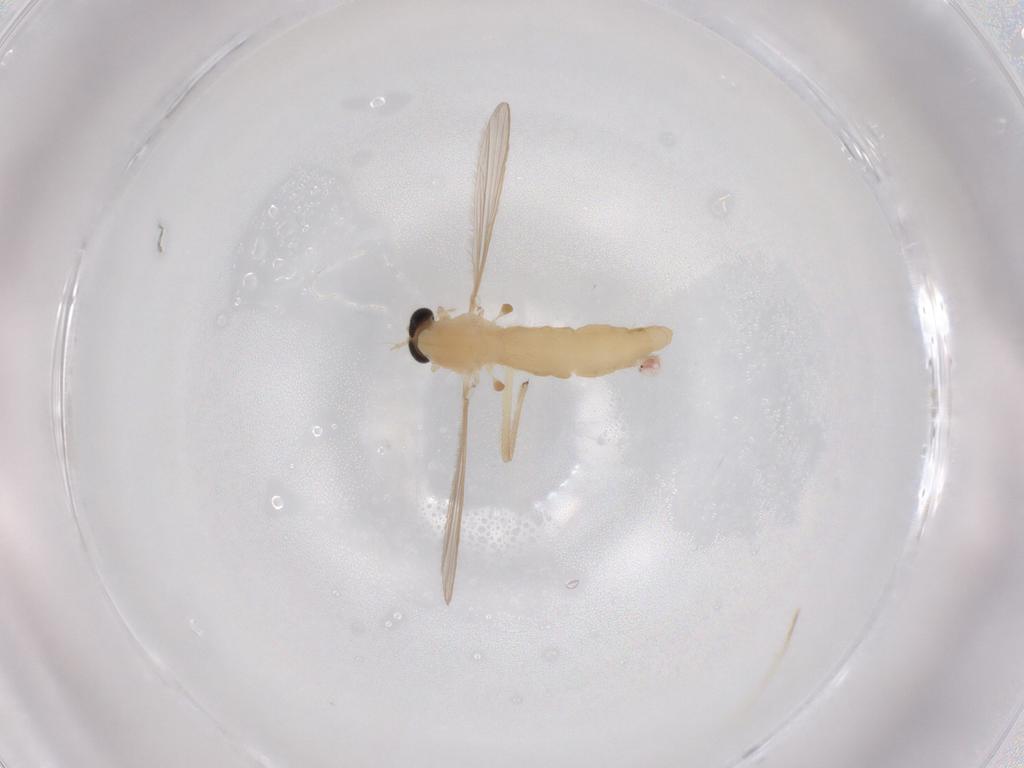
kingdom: Animalia
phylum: Arthropoda
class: Insecta
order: Diptera
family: Chironomidae
